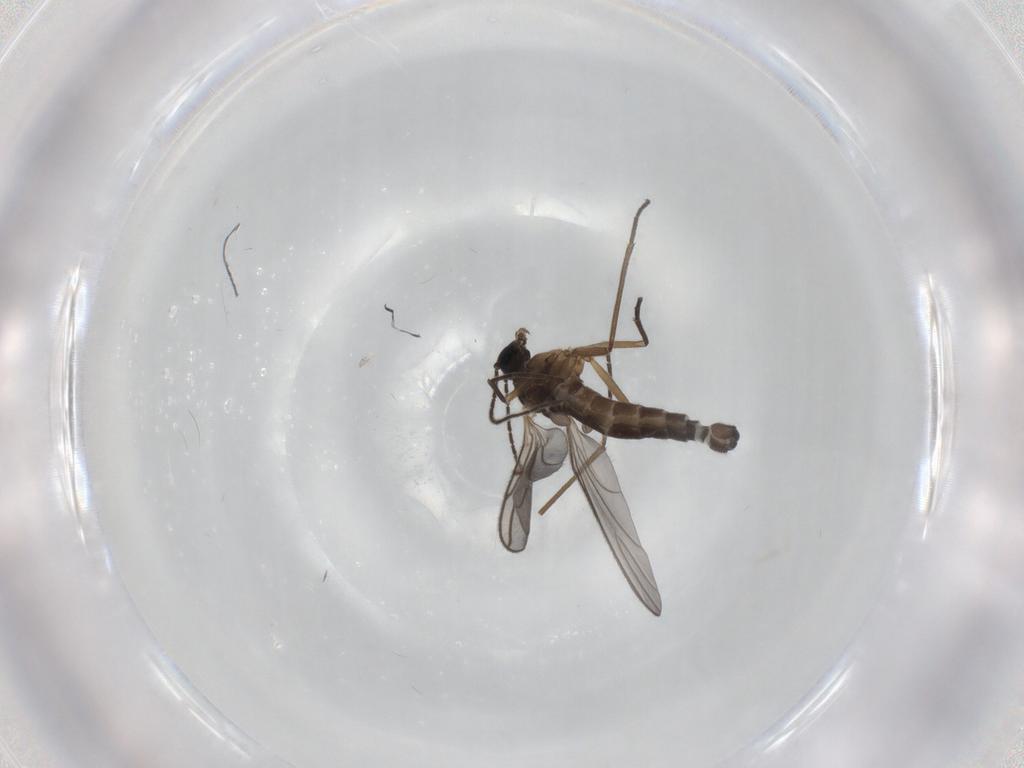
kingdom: Animalia
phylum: Arthropoda
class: Insecta
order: Diptera
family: Sciaridae
